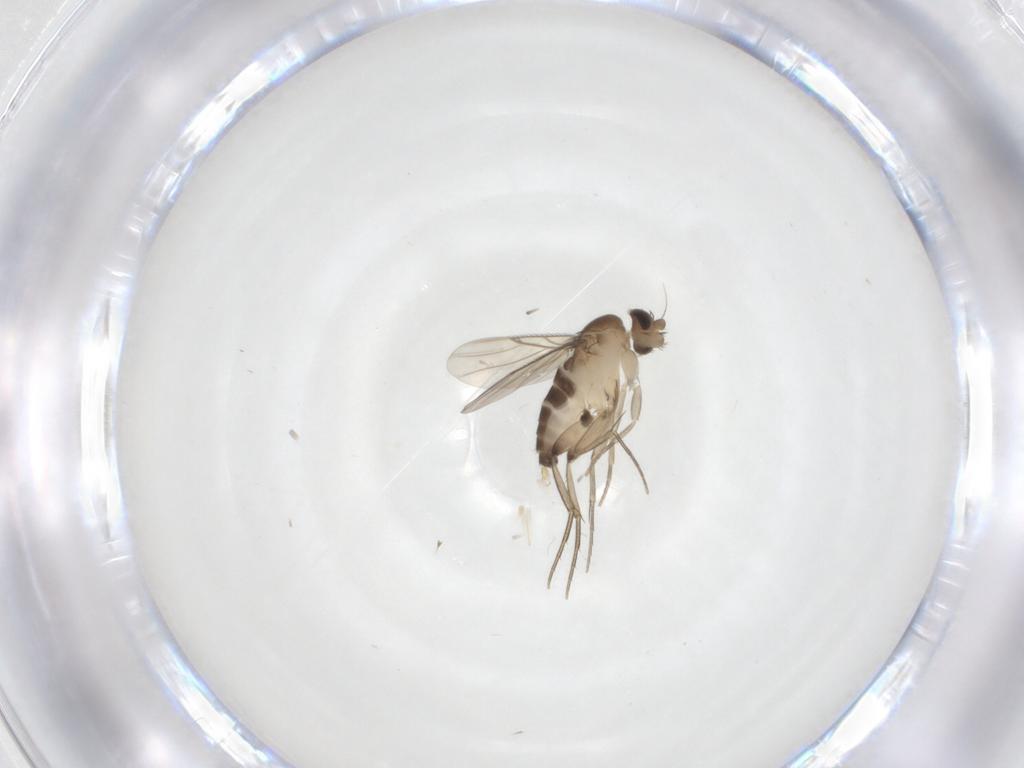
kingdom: Animalia
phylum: Arthropoda
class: Insecta
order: Diptera
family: Phoridae
